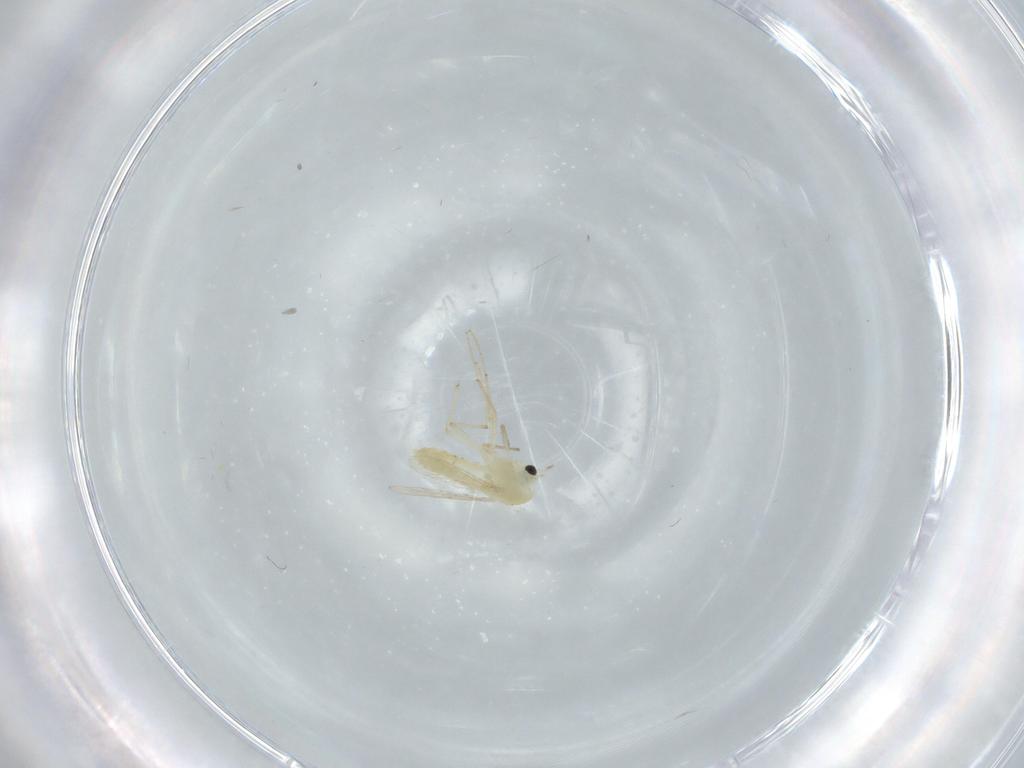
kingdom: Animalia
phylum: Arthropoda
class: Insecta
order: Diptera
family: Chironomidae
